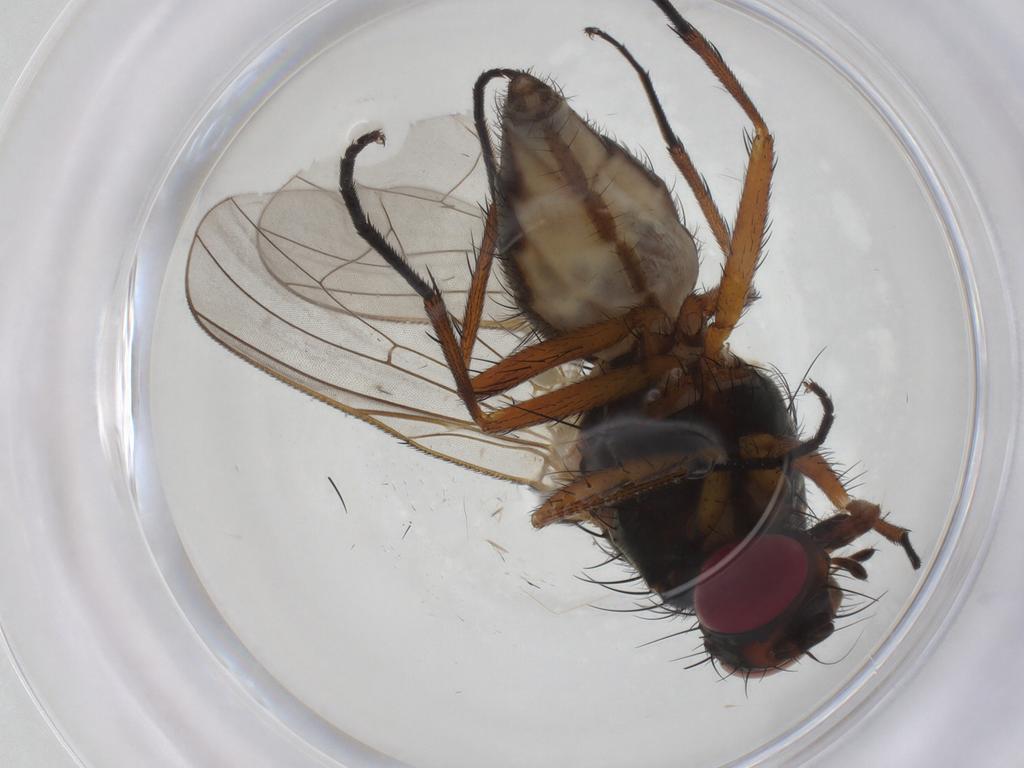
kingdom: Animalia
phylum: Arthropoda
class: Insecta
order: Diptera
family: Anthomyiidae
